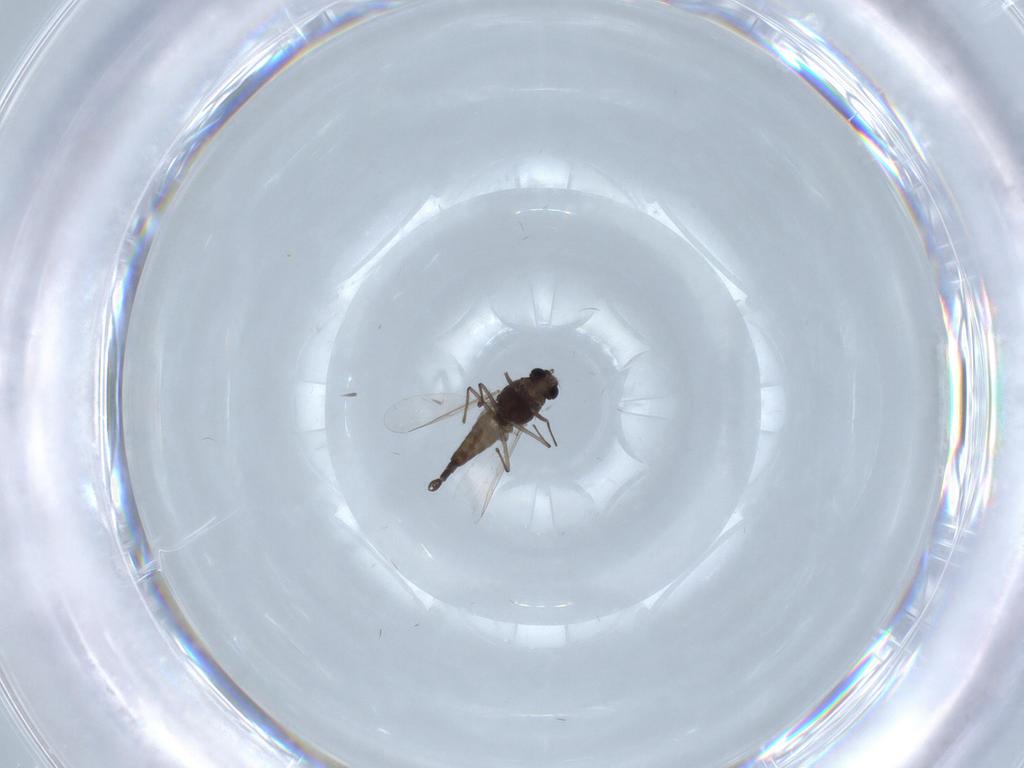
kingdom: Animalia
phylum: Arthropoda
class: Insecta
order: Diptera
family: Chironomidae
